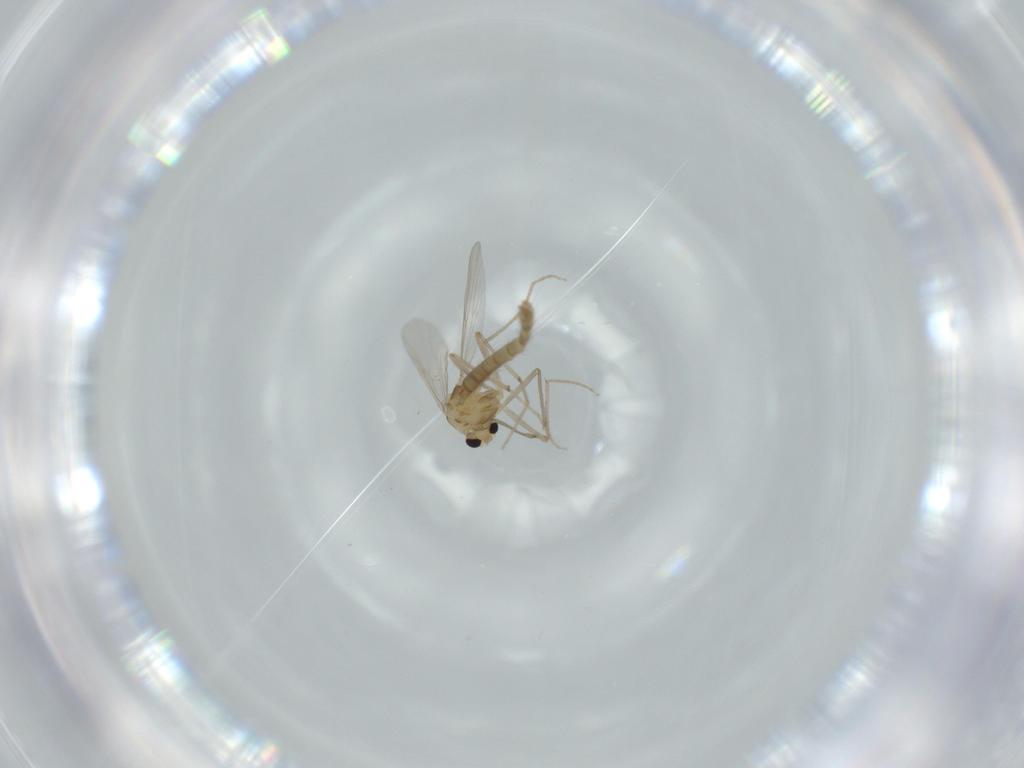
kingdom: Animalia
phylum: Arthropoda
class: Insecta
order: Diptera
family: Chironomidae
